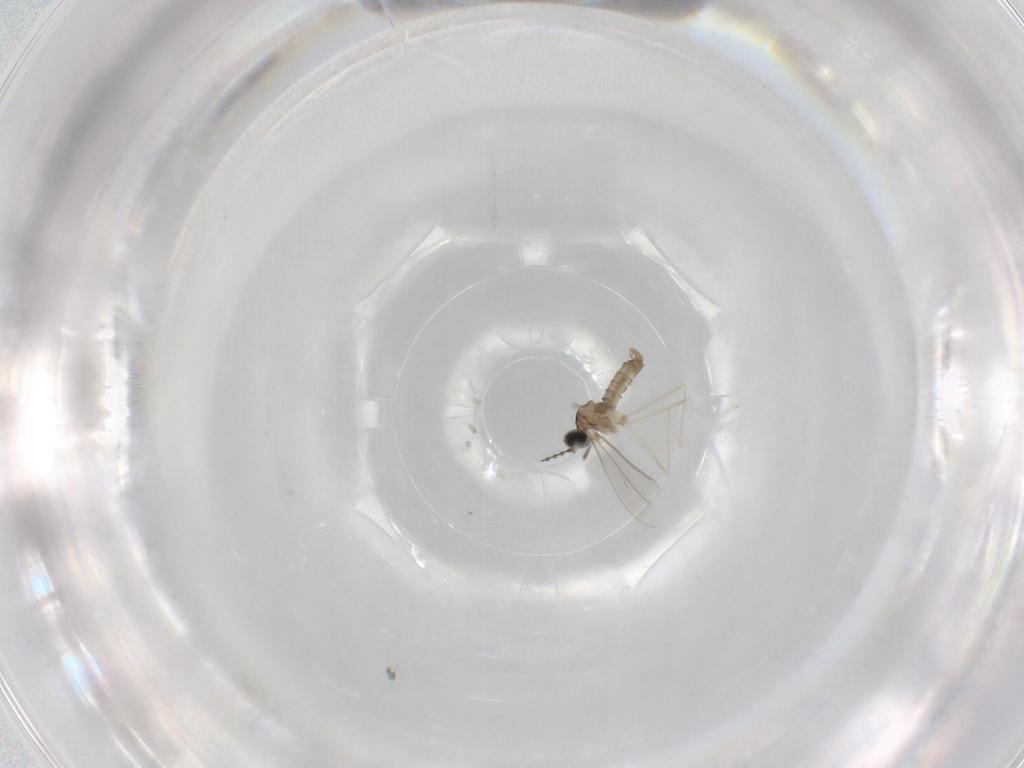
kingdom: Animalia
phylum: Arthropoda
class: Insecta
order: Diptera
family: Cecidomyiidae
